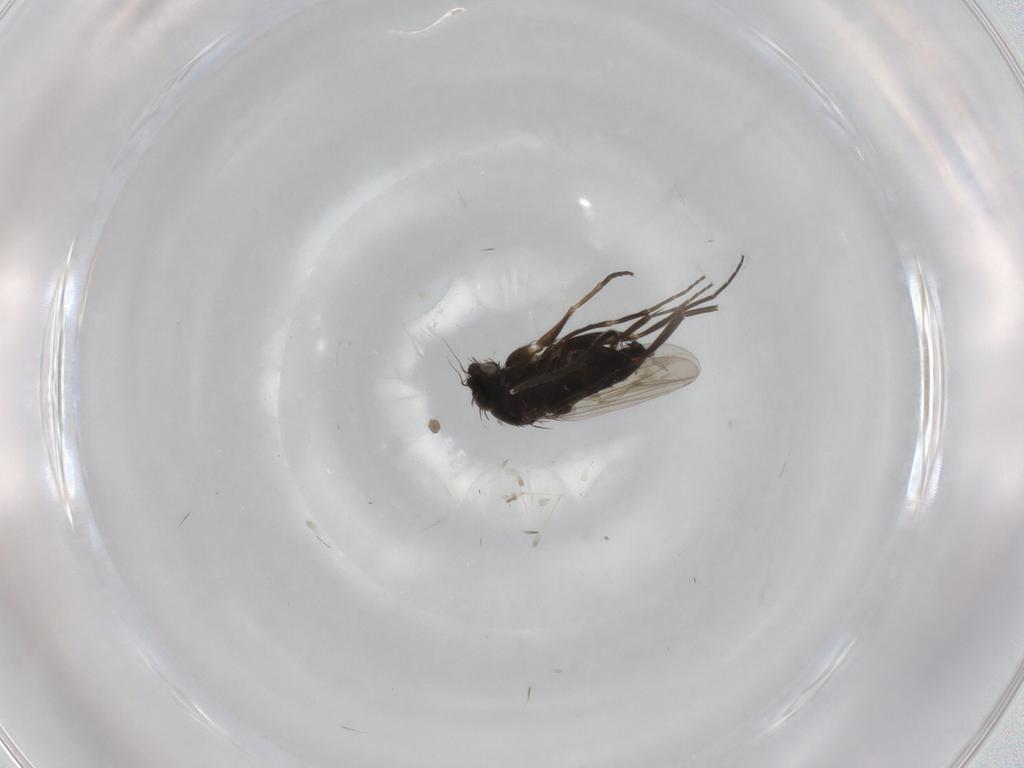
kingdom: Animalia
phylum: Arthropoda
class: Insecta
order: Diptera
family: Phoridae
